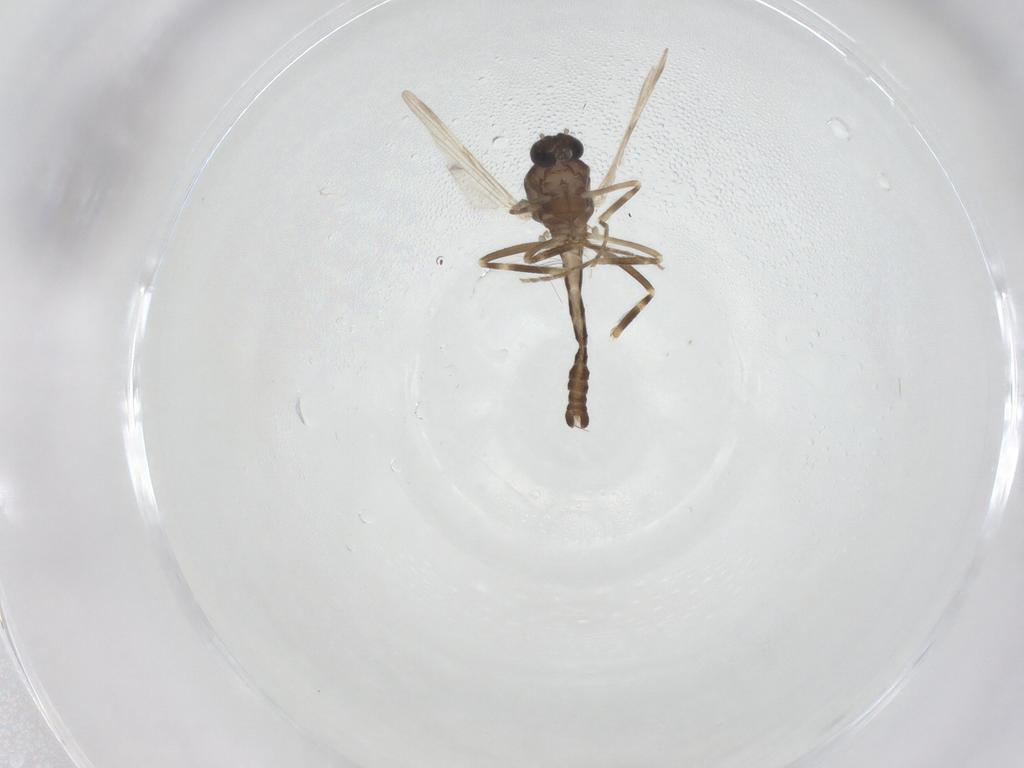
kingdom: Animalia
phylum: Arthropoda
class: Insecta
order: Diptera
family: Ceratopogonidae
